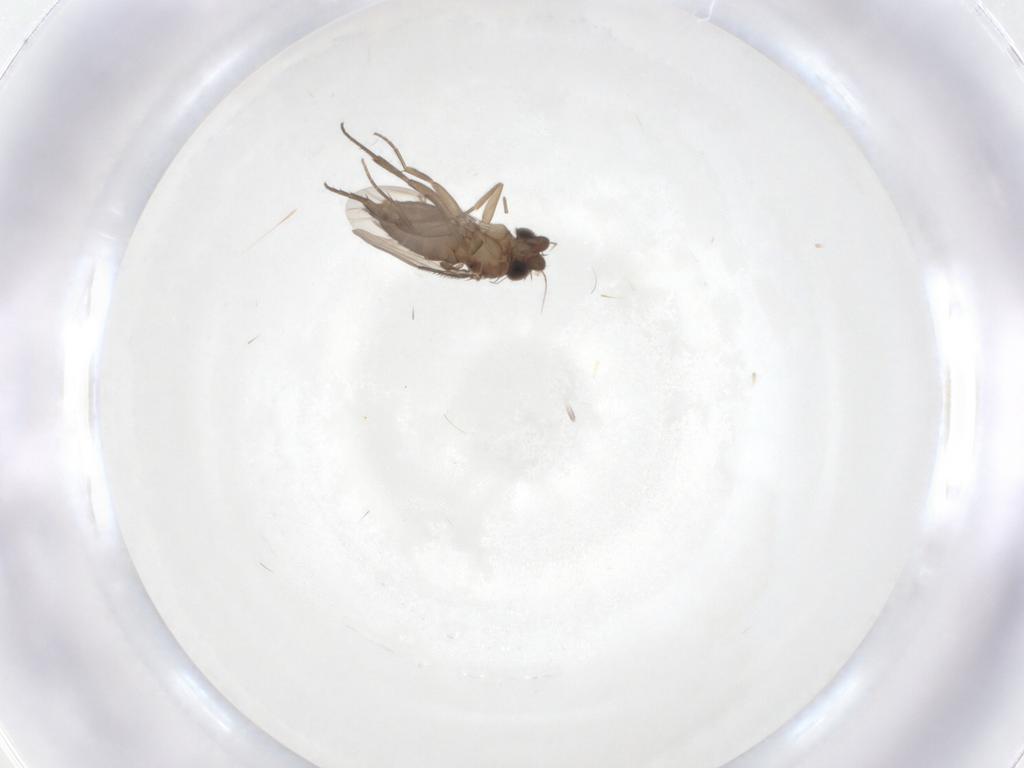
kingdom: Animalia
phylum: Arthropoda
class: Insecta
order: Diptera
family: Phoridae
